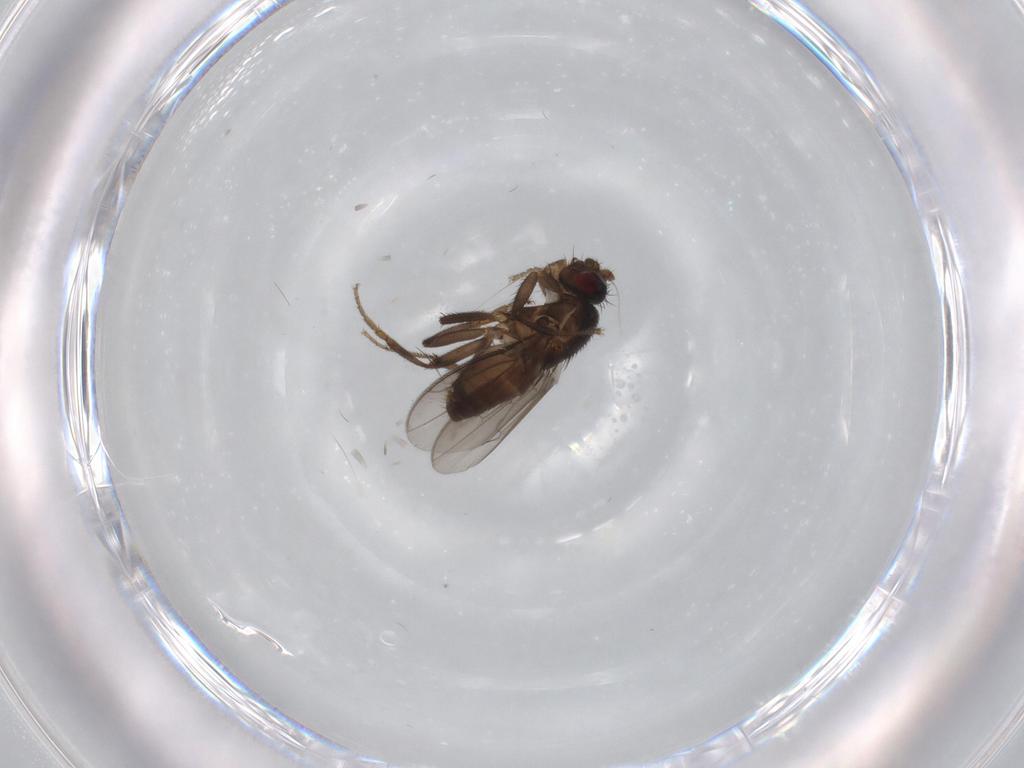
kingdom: Animalia
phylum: Arthropoda
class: Insecta
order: Diptera
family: Sphaeroceridae
